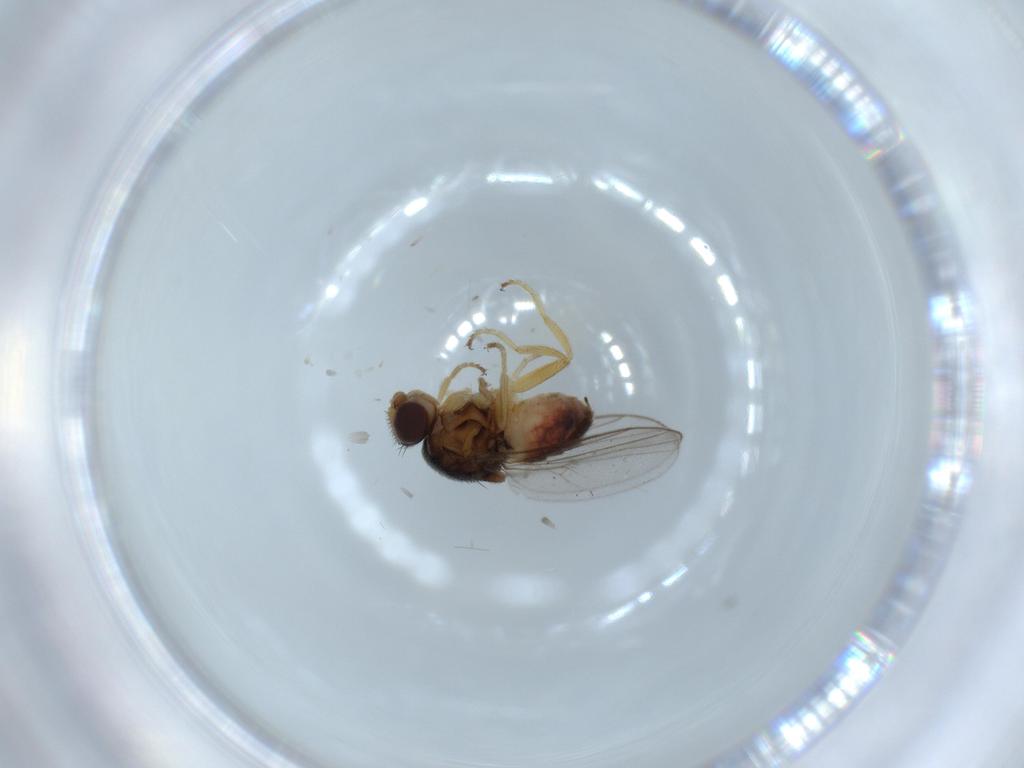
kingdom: Animalia
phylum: Arthropoda
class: Insecta
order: Diptera
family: Chloropidae
